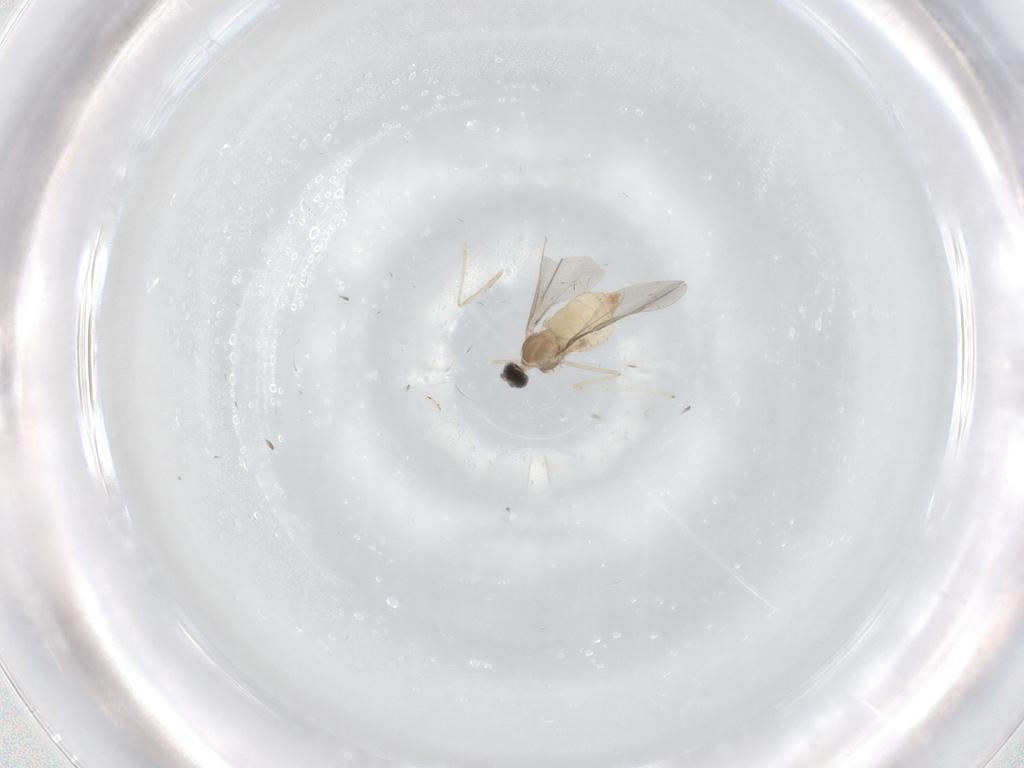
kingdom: Animalia
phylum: Arthropoda
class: Insecta
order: Diptera
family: Cecidomyiidae
